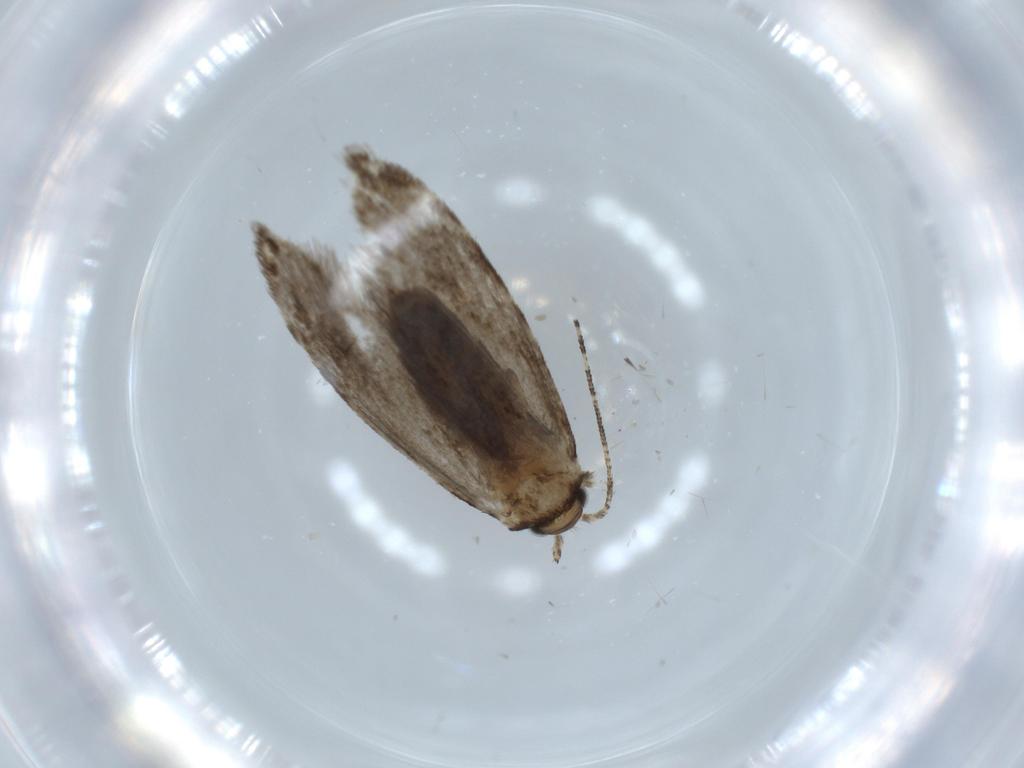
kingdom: Animalia
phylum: Arthropoda
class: Insecta
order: Lepidoptera
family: Tineidae
